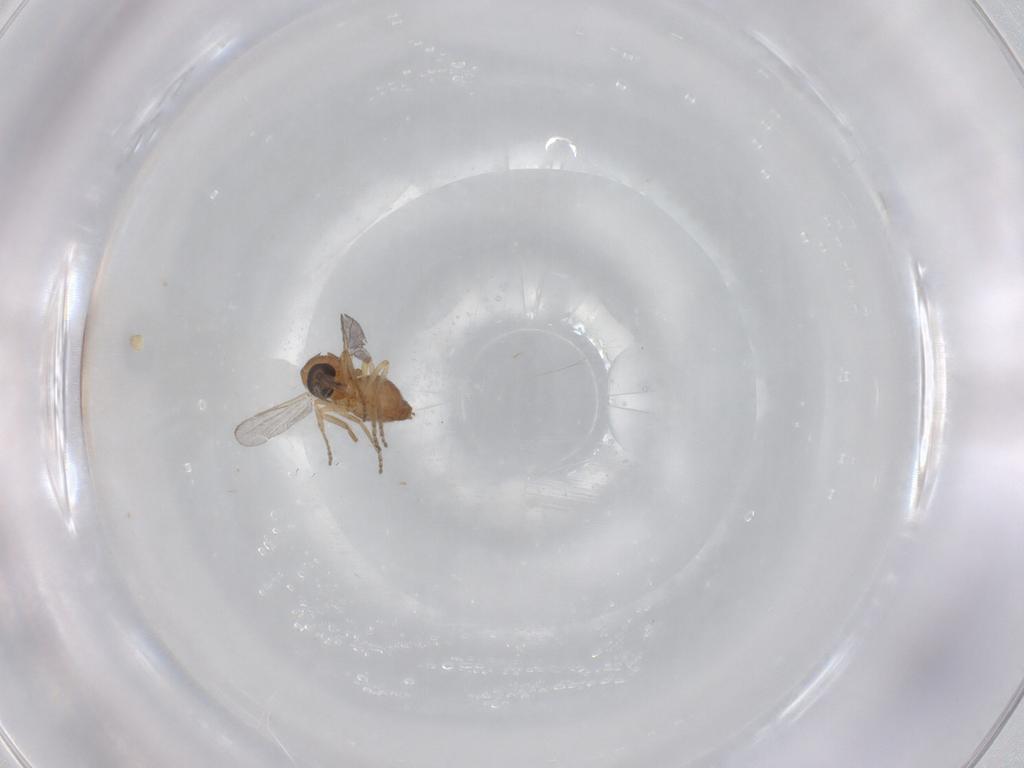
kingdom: Animalia
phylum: Arthropoda
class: Insecta
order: Diptera
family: Ceratopogonidae
